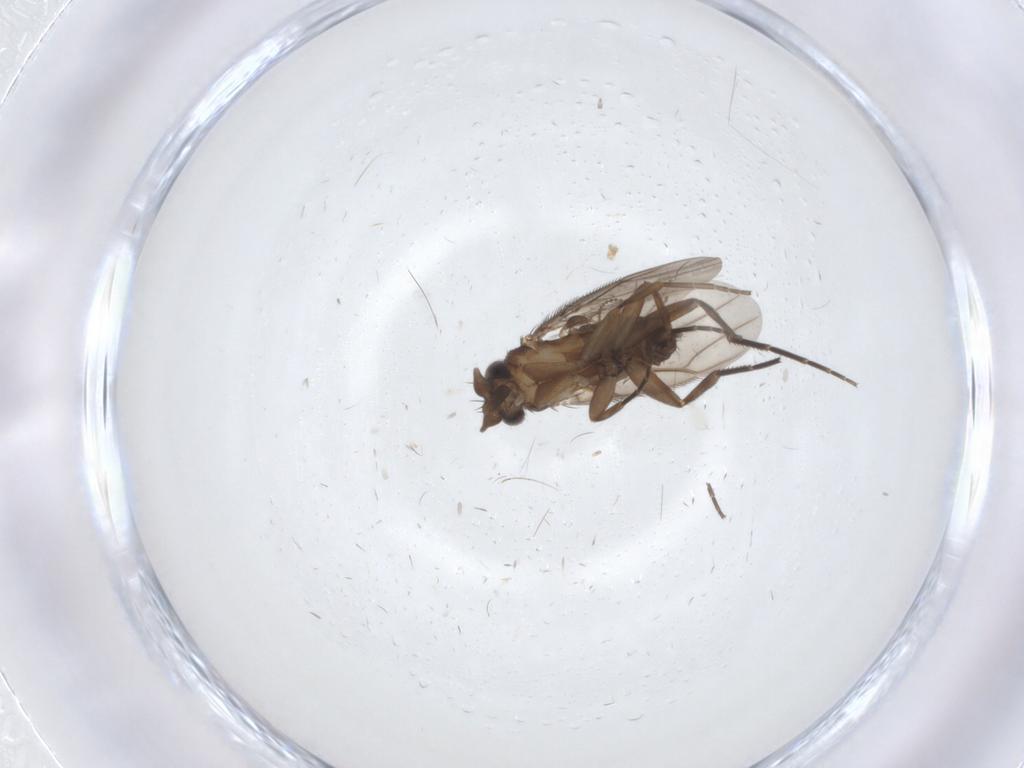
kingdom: Animalia
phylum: Arthropoda
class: Insecta
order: Diptera
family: Phoridae
